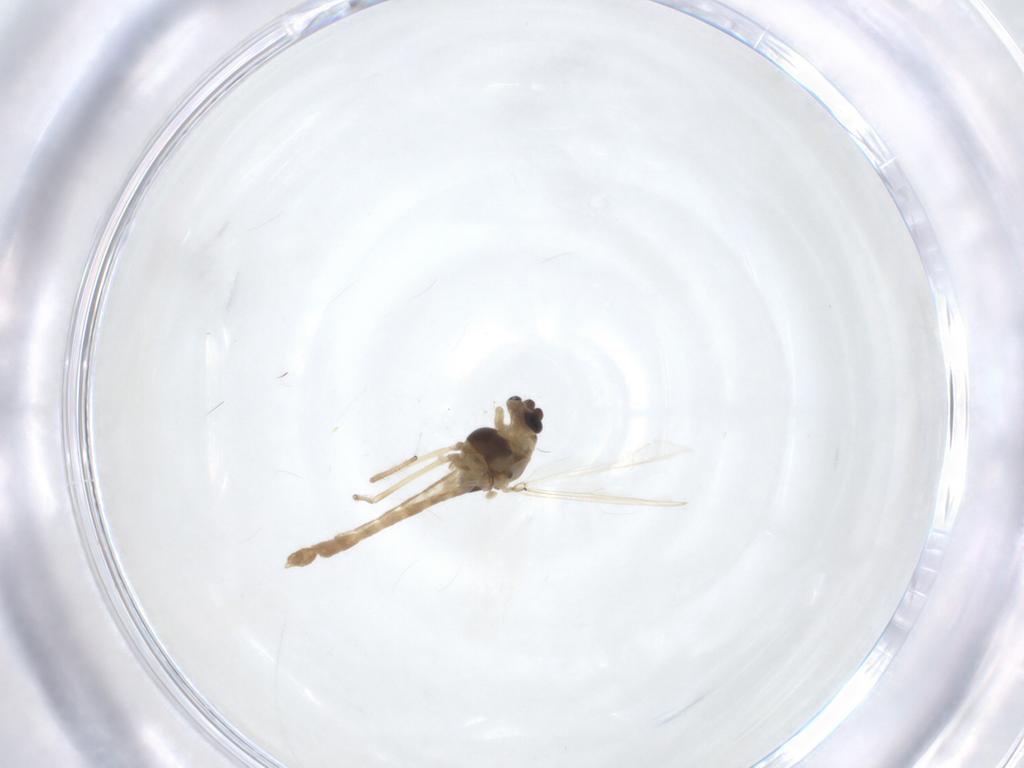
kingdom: Animalia
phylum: Arthropoda
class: Insecta
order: Diptera
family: Chironomidae
